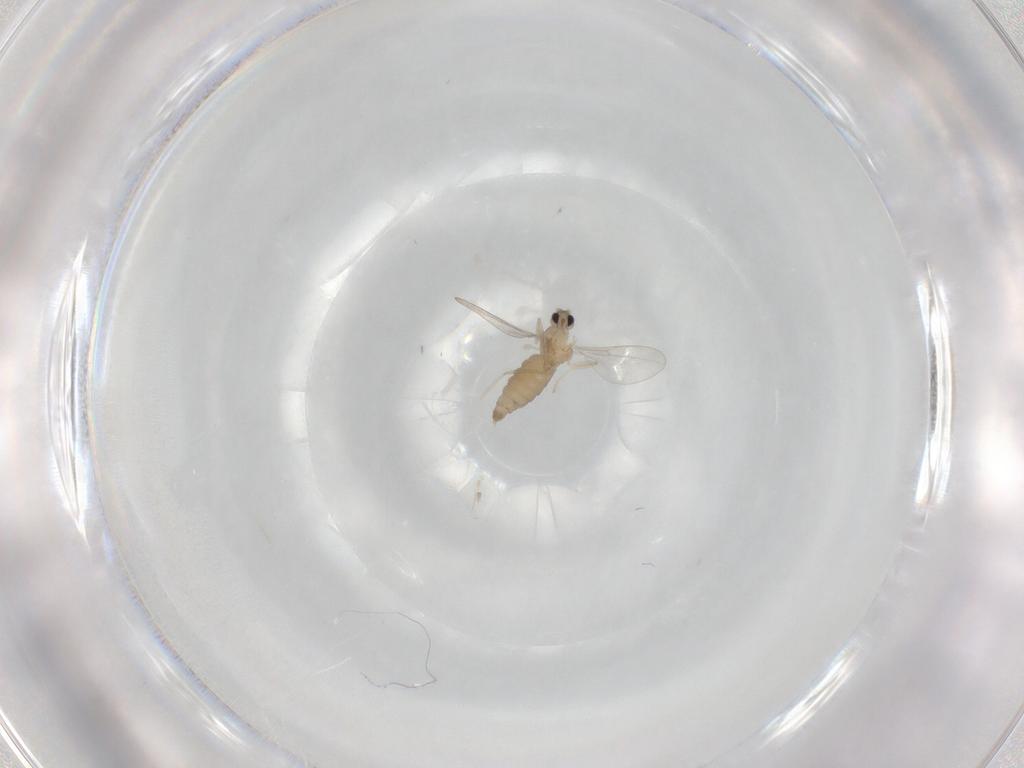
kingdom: Animalia
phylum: Arthropoda
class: Insecta
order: Diptera
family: Cecidomyiidae
